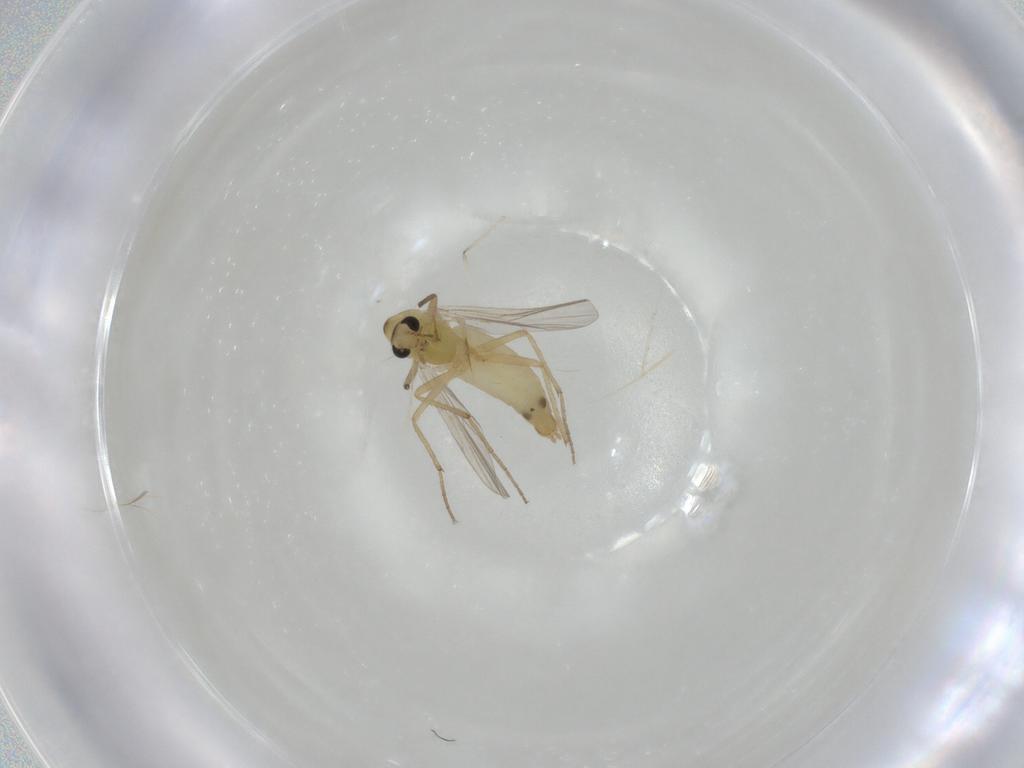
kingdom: Animalia
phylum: Arthropoda
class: Insecta
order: Diptera
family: Chironomidae
